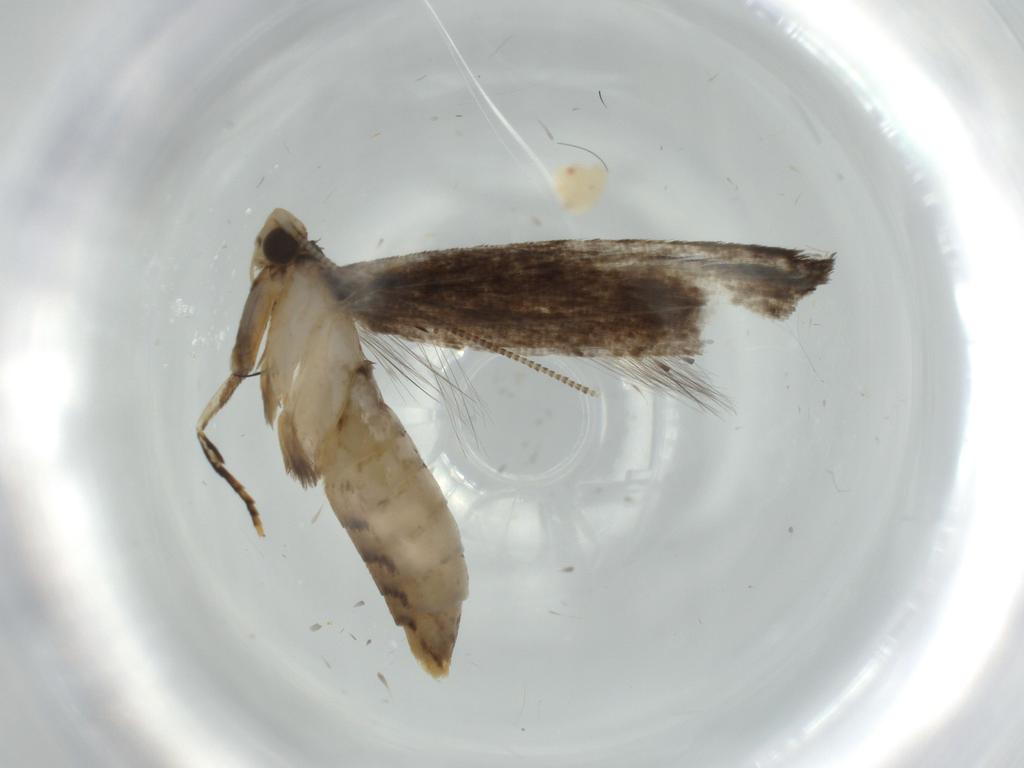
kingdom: Animalia
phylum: Arthropoda
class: Insecta
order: Lepidoptera
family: Tineidae
